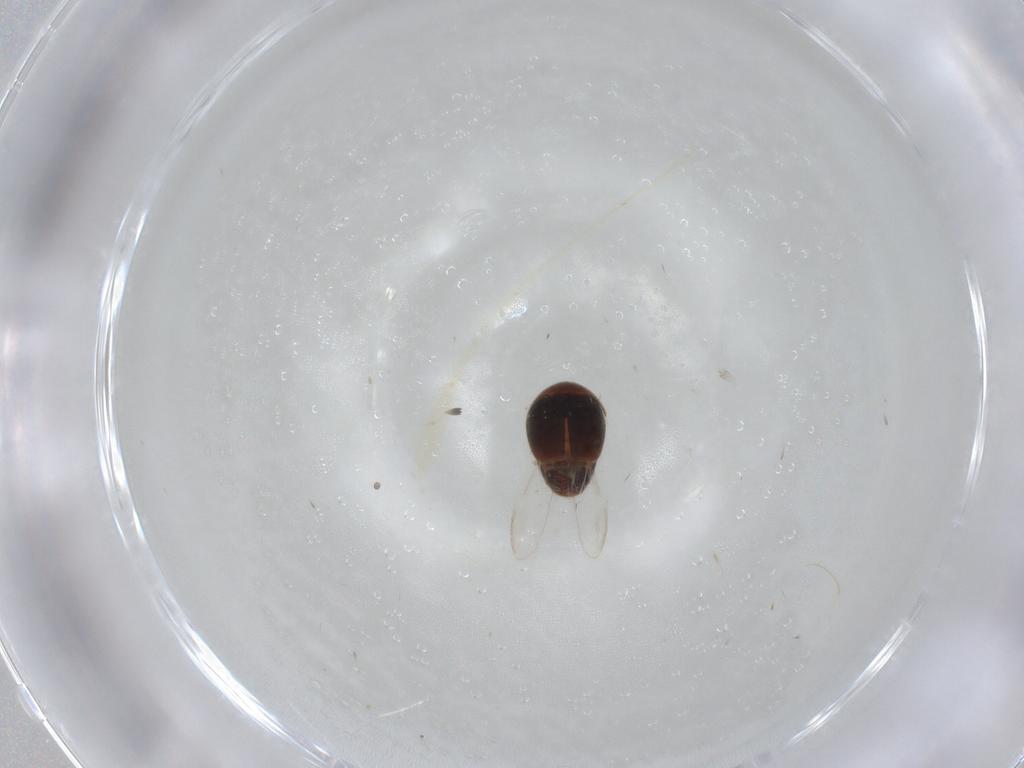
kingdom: Animalia
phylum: Arthropoda
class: Insecta
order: Coleoptera
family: Corylophidae
